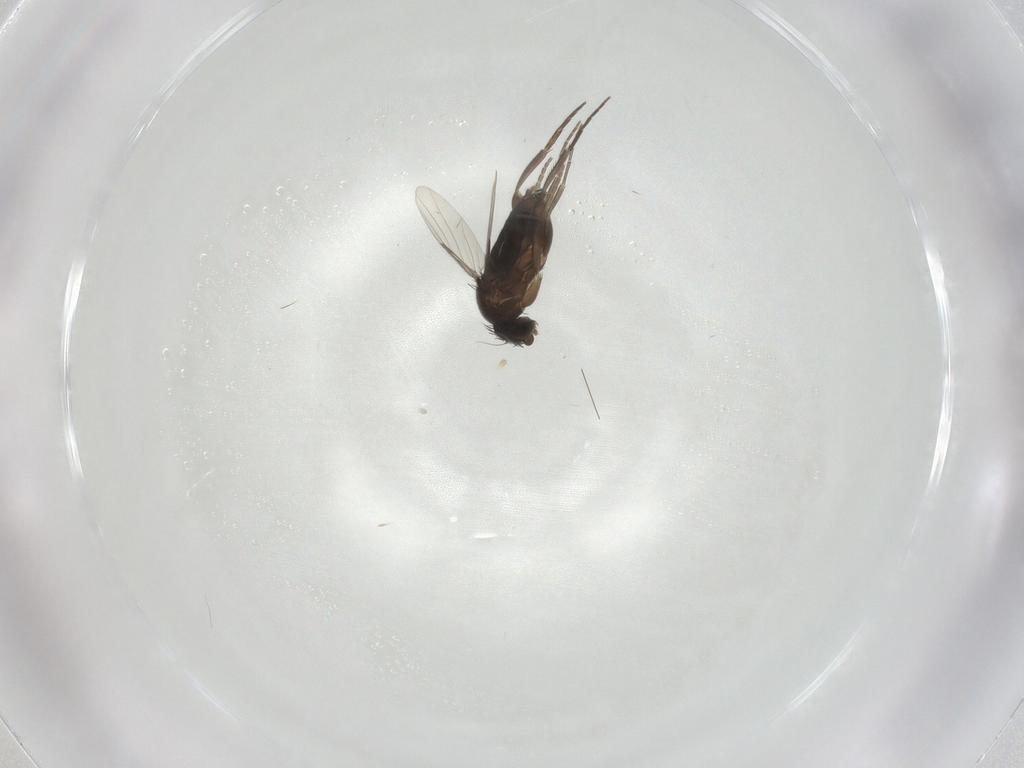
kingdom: Animalia
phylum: Arthropoda
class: Insecta
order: Diptera
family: Phoridae
